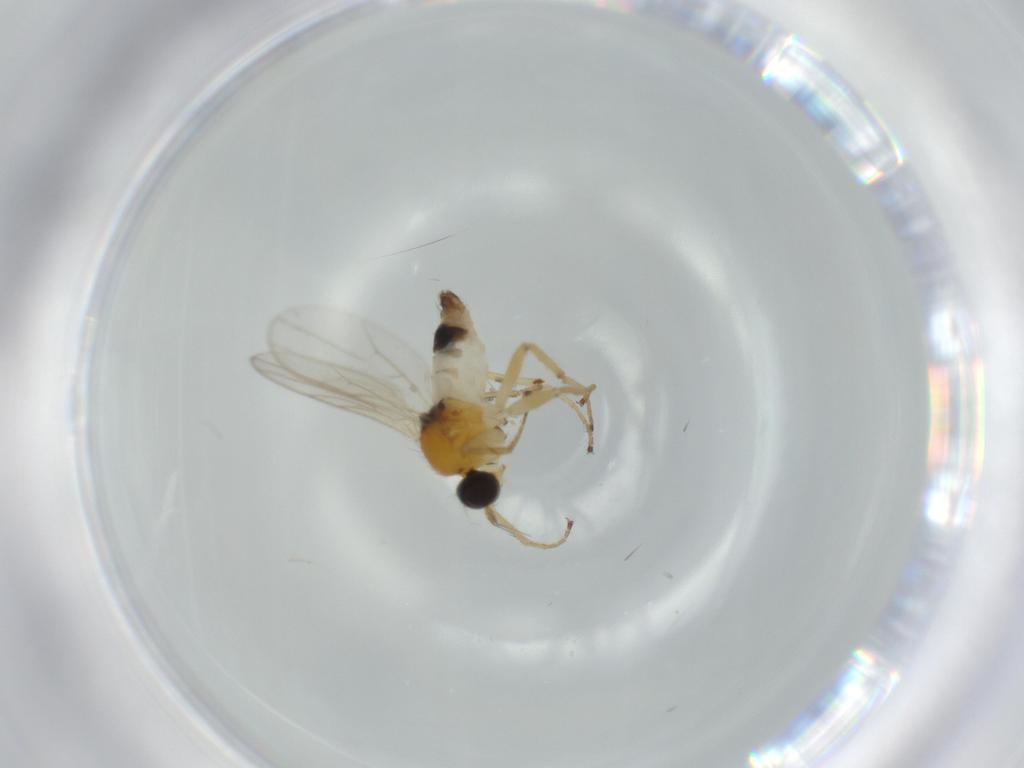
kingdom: Animalia
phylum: Arthropoda
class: Insecta
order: Diptera
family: Hybotidae
